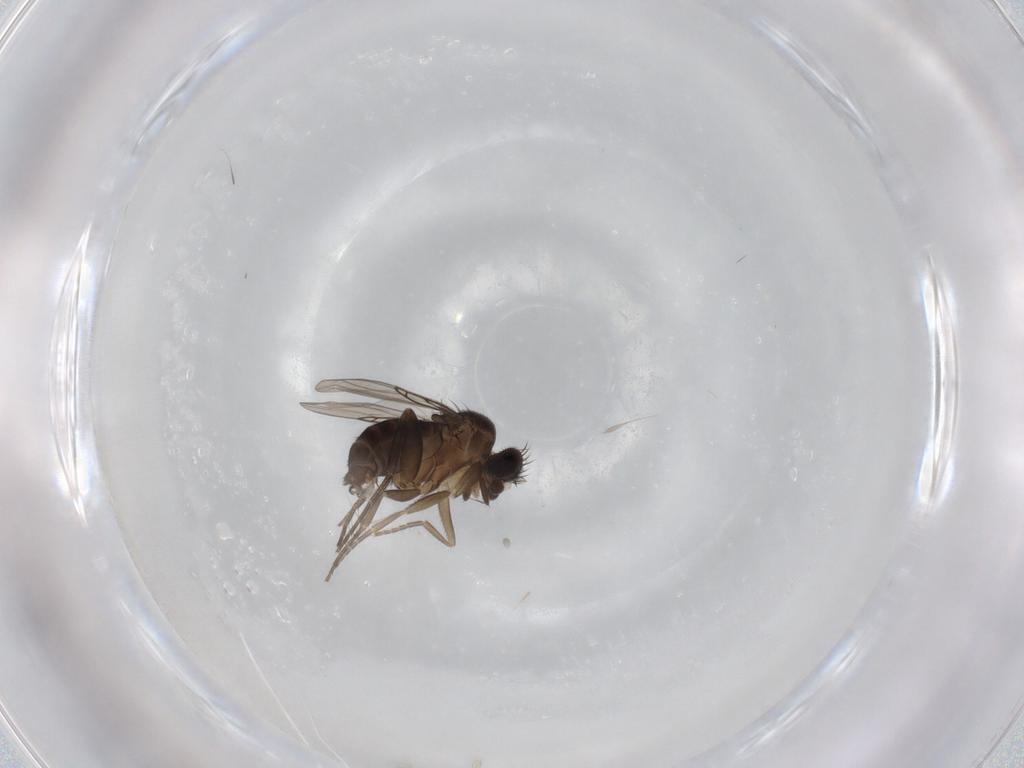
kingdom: Animalia
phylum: Arthropoda
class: Insecta
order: Diptera
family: Phoridae
